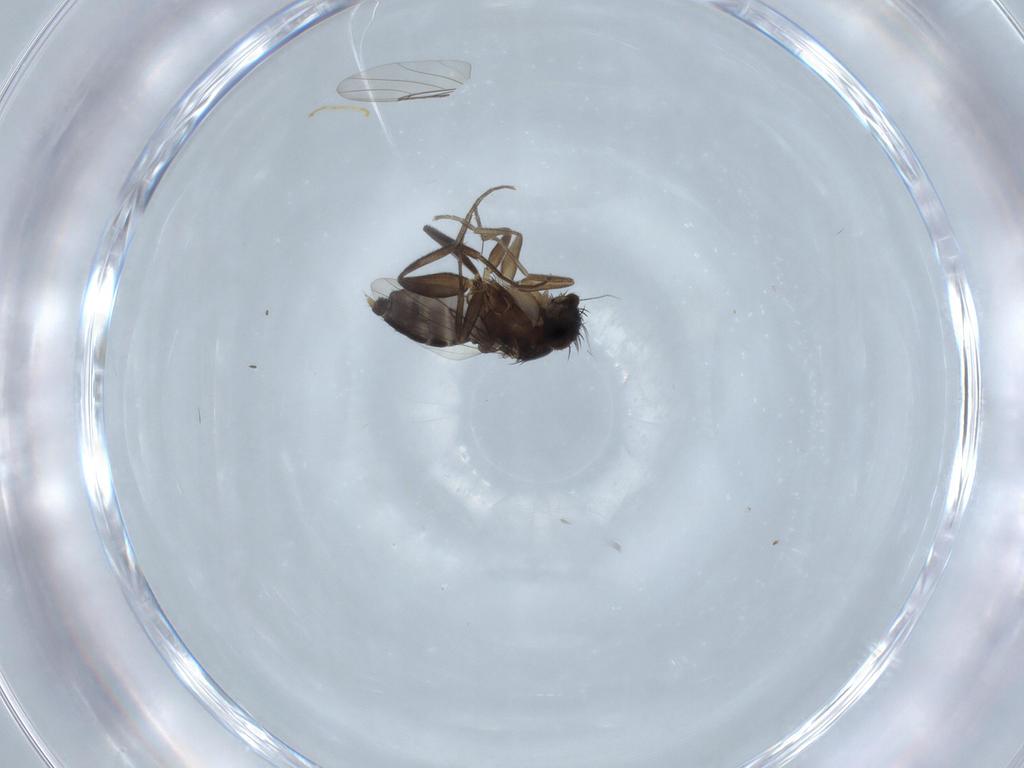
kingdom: Animalia
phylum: Arthropoda
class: Insecta
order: Diptera
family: Phoridae
